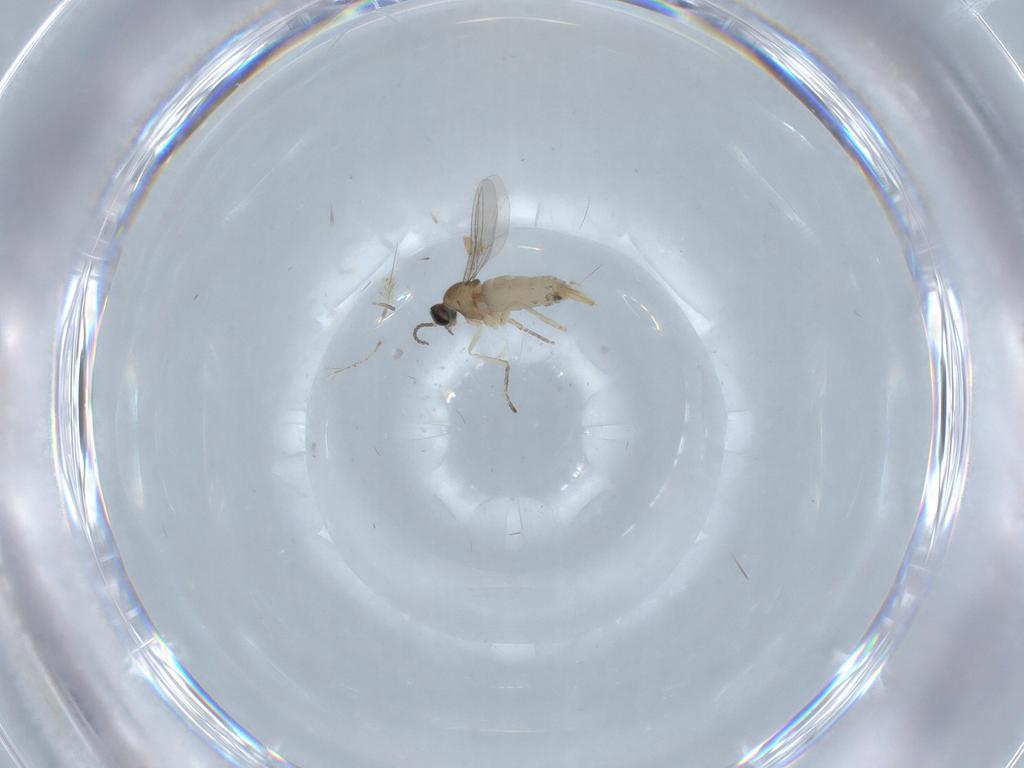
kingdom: Animalia
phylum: Arthropoda
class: Insecta
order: Diptera
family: Cecidomyiidae
